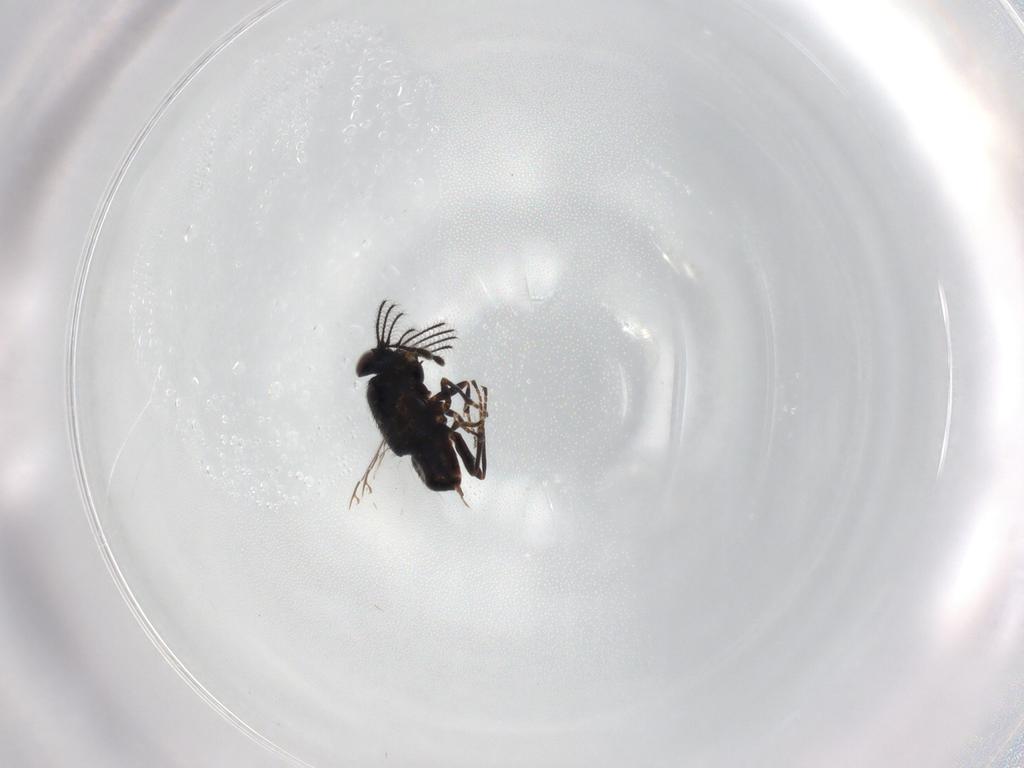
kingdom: Animalia
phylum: Arthropoda
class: Insecta
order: Hymenoptera
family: Encyrtidae
